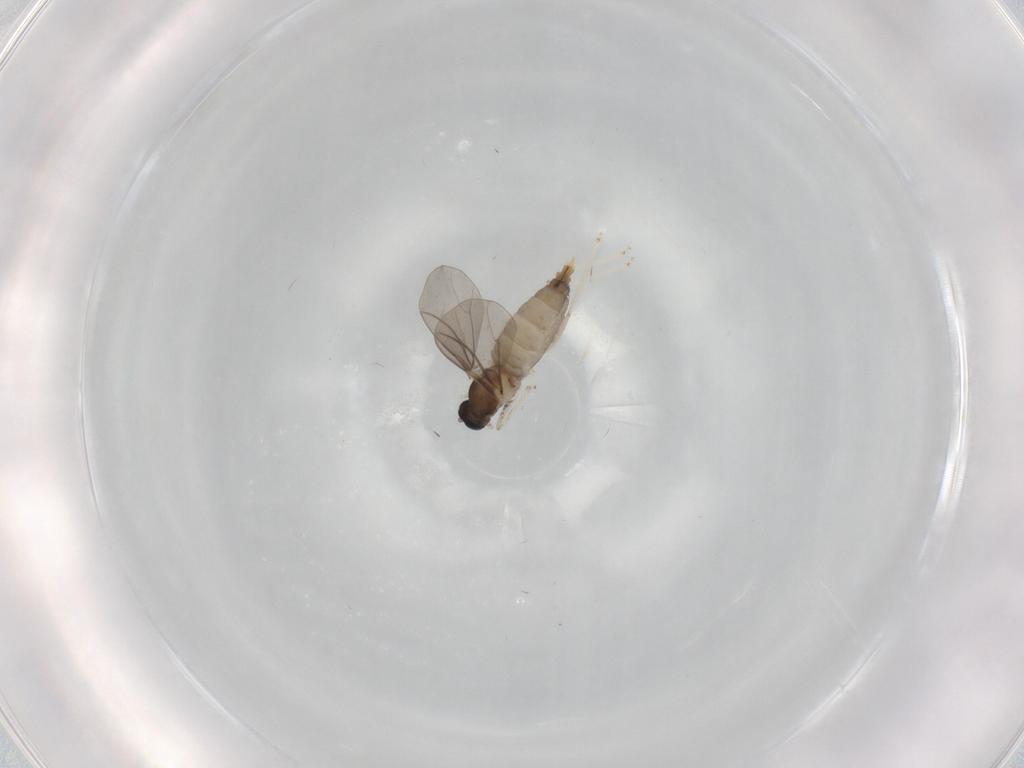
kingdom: Animalia
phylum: Arthropoda
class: Insecta
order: Diptera
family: Cecidomyiidae
